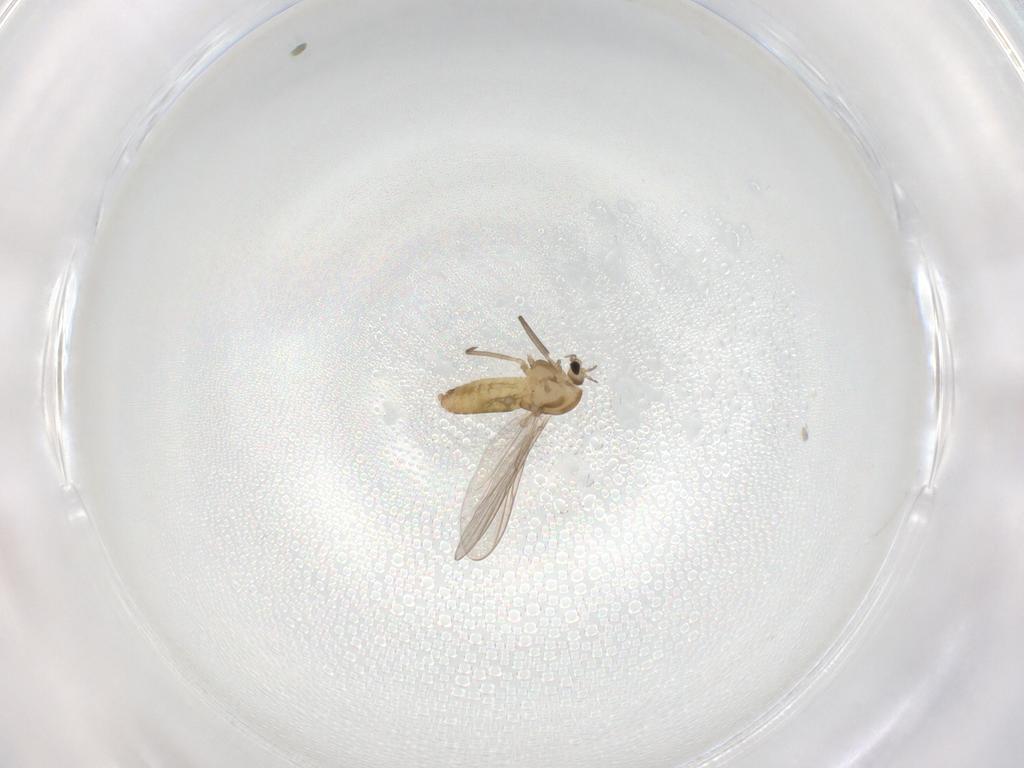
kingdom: Animalia
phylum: Arthropoda
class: Insecta
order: Diptera
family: Chironomidae
